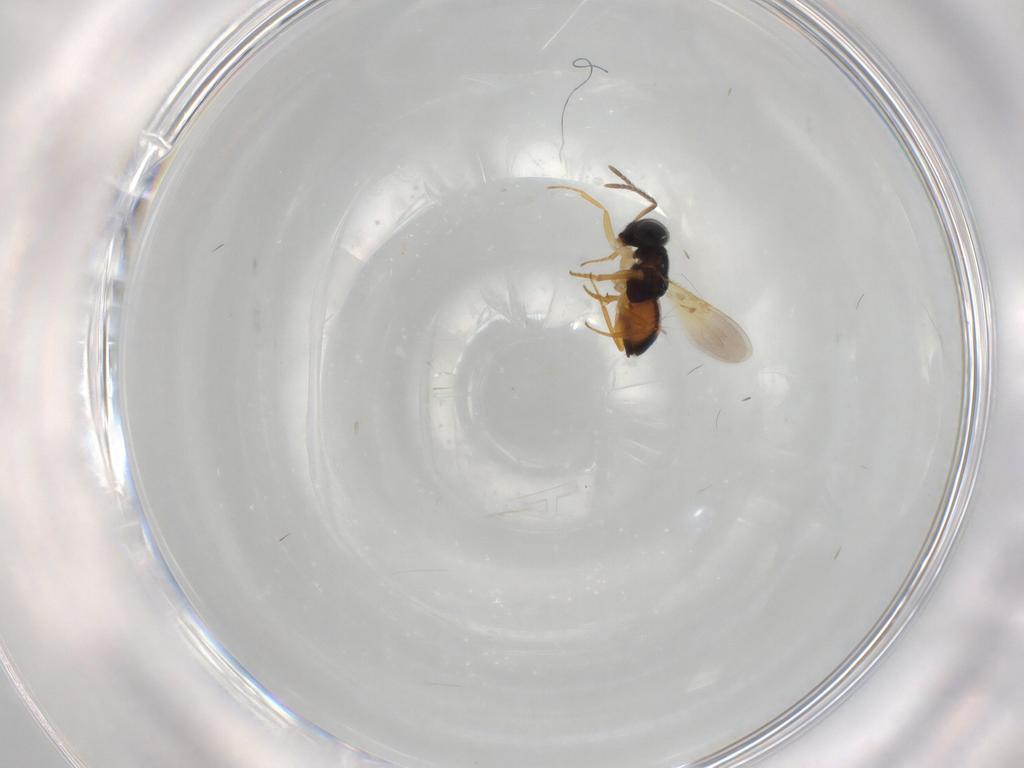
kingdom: Animalia
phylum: Arthropoda
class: Insecta
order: Hymenoptera
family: Encyrtidae
